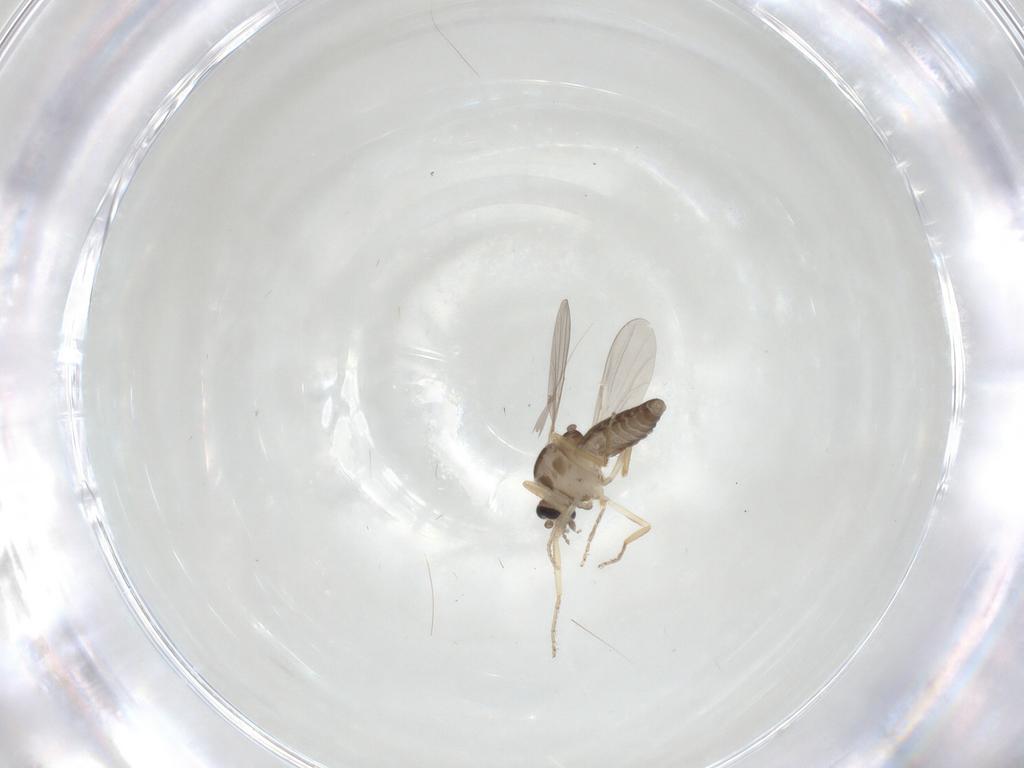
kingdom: Animalia
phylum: Arthropoda
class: Insecta
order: Diptera
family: Ceratopogonidae
